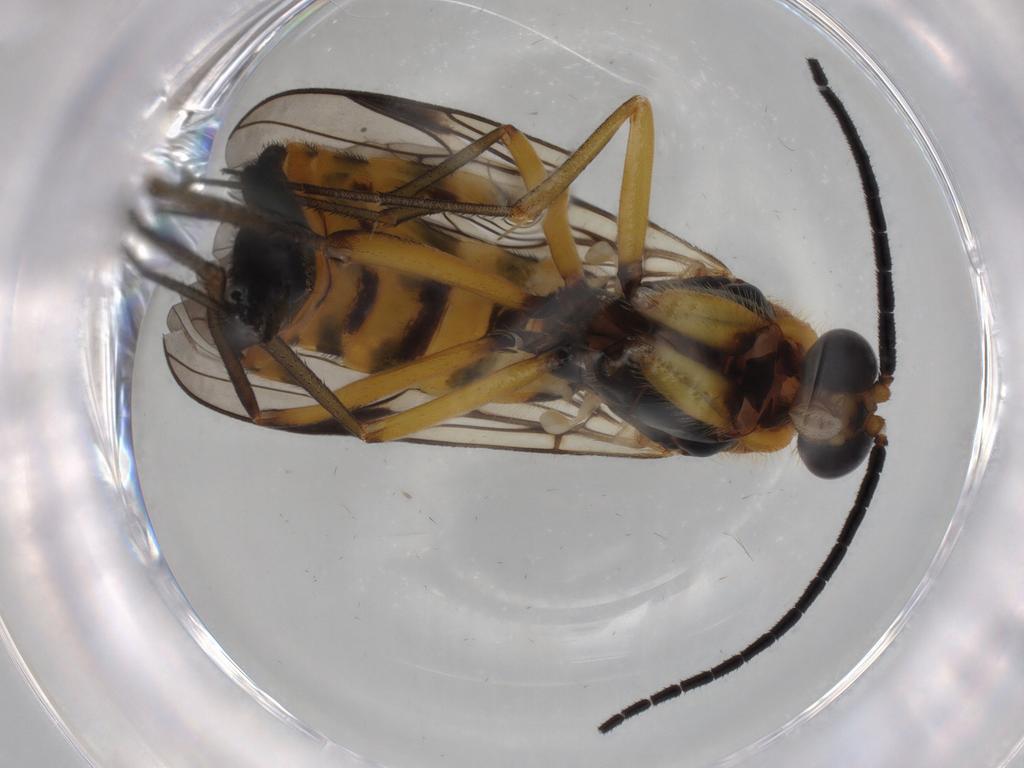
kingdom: Animalia
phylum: Arthropoda
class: Insecta
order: Diptera
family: Psychodidae
